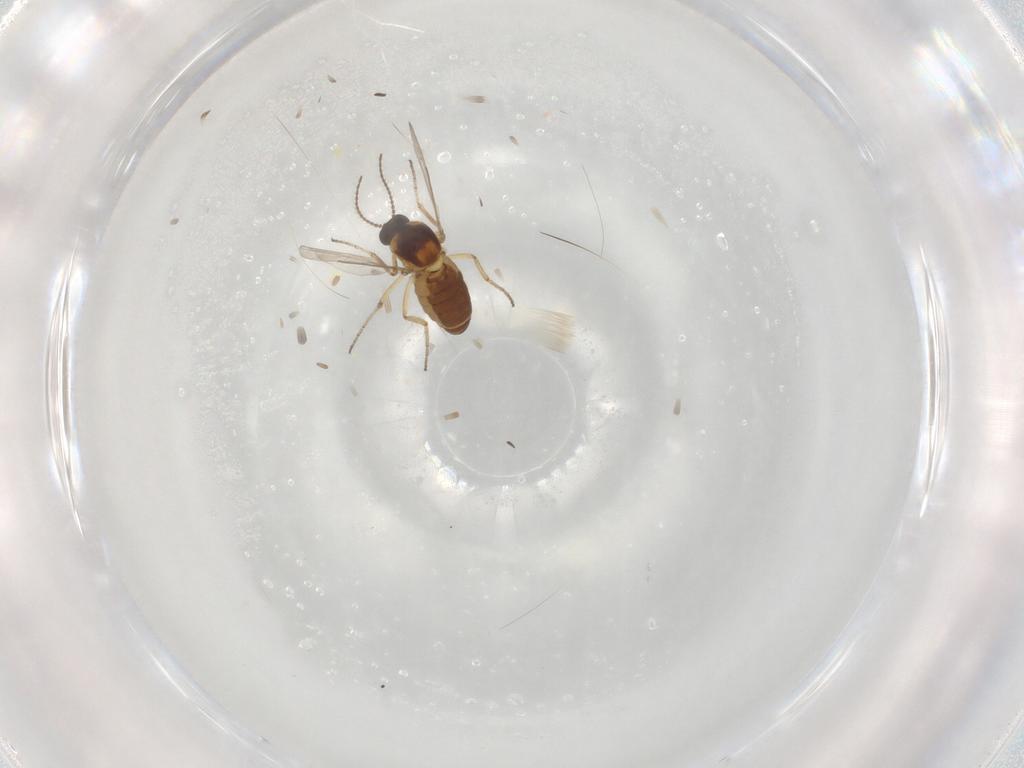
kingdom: Animalia
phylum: Arthropoda
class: Insecta
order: Diptera
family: Ceratopogonidae
